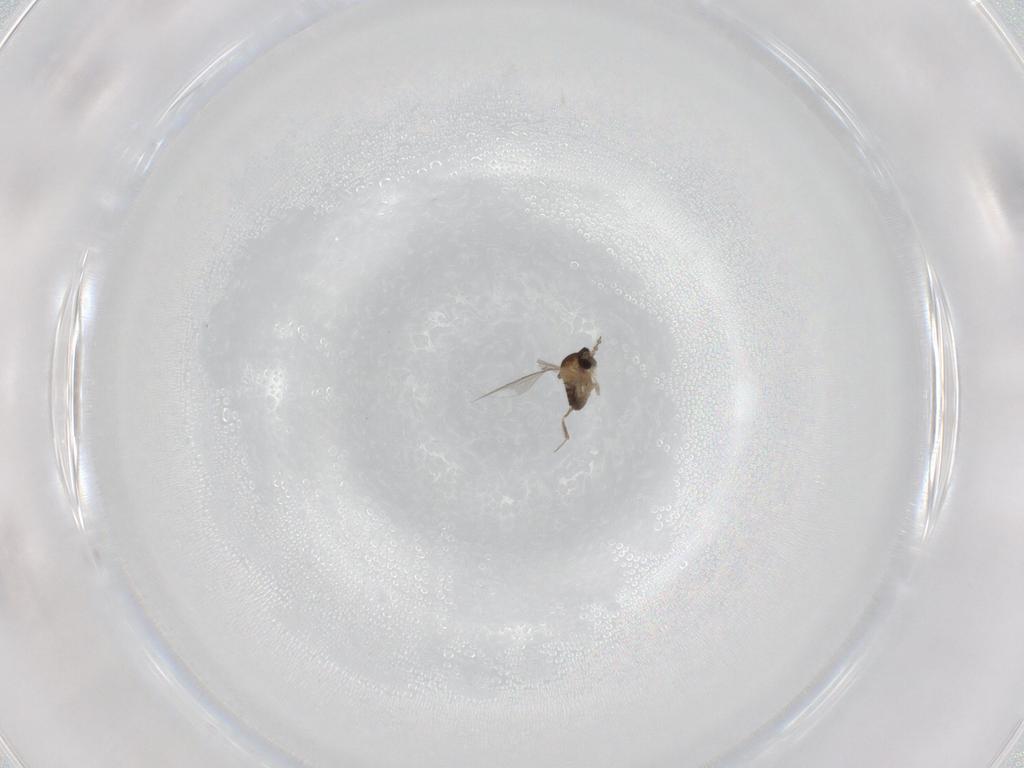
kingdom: Animalia
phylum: Arthropoda
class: Insecta
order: Diptera
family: Cecidomyiidae
